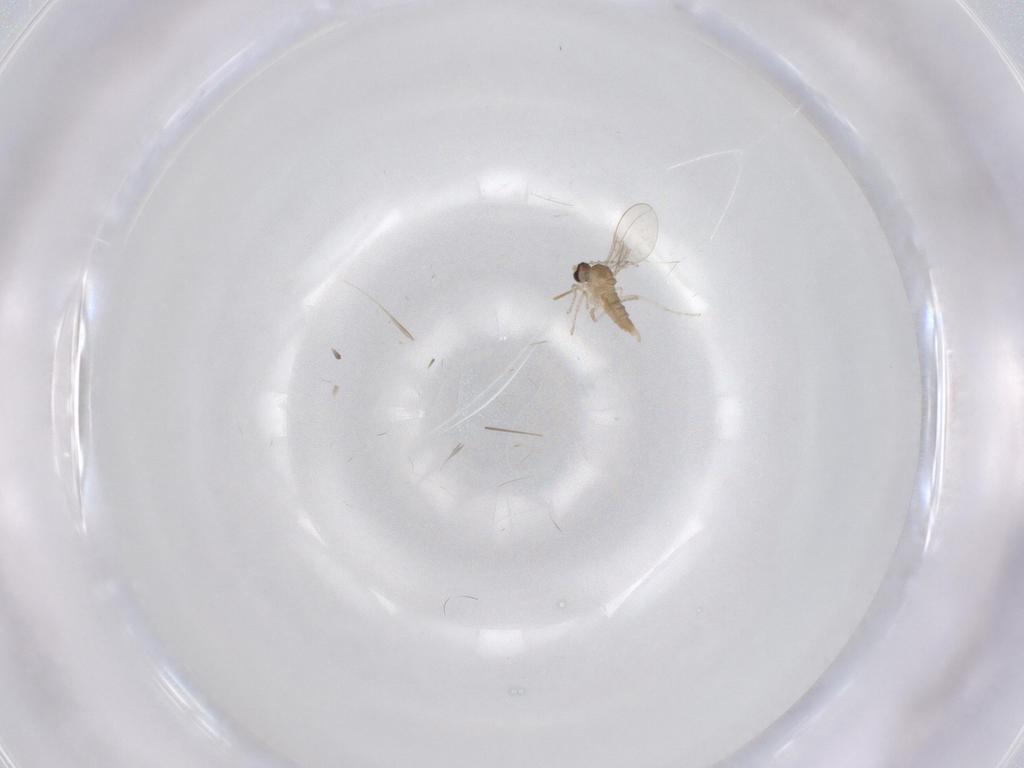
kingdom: Animalia
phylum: Arthropoda
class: Insecta
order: Diptera
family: Cecidomyiidae
